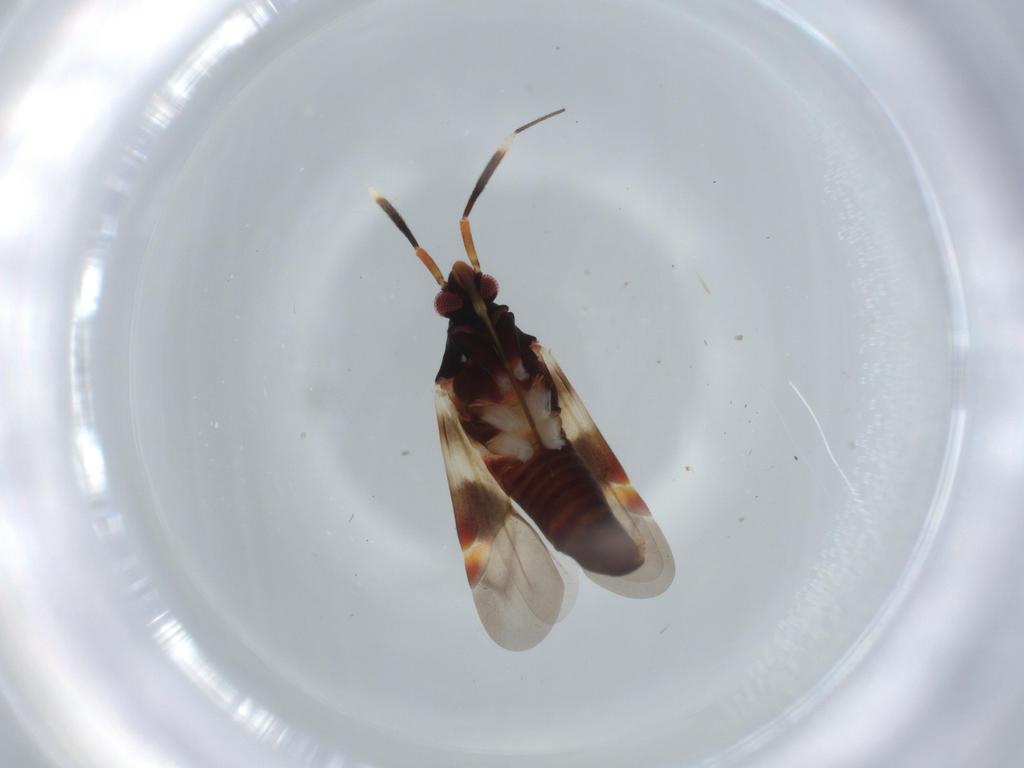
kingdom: Animalia
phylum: Arthropoda
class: Insecta
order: Hemiptera
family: Miridae
